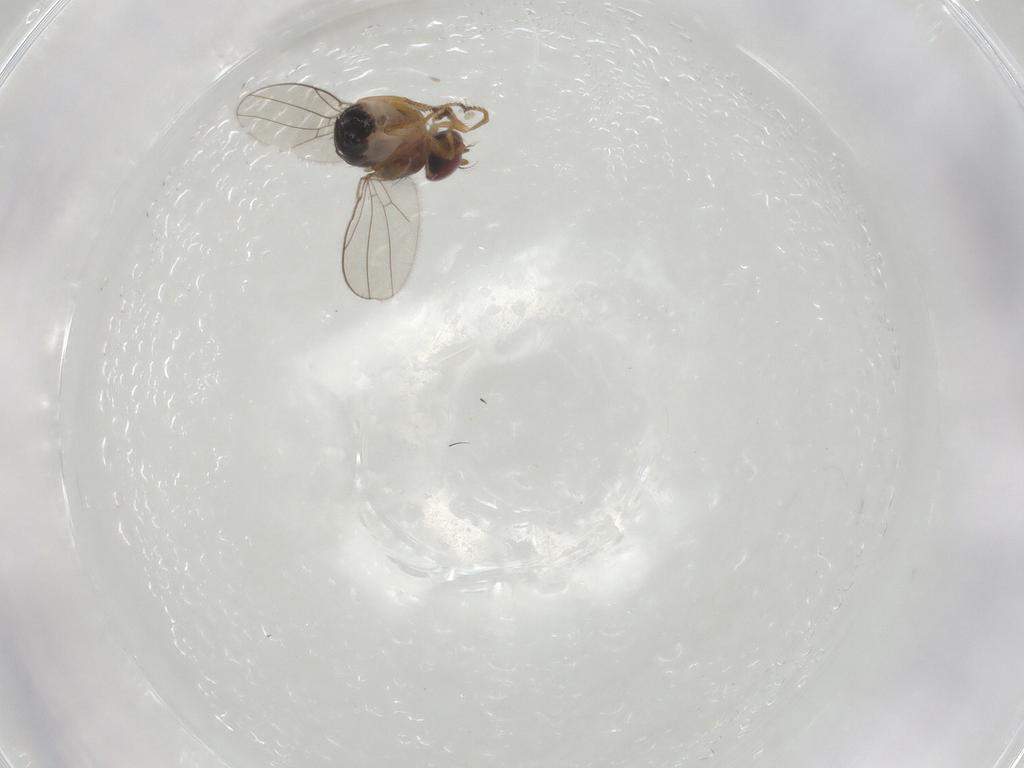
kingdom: Animalia
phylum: Arthropoda
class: Insecta
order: Diptera
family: Ephydridae
